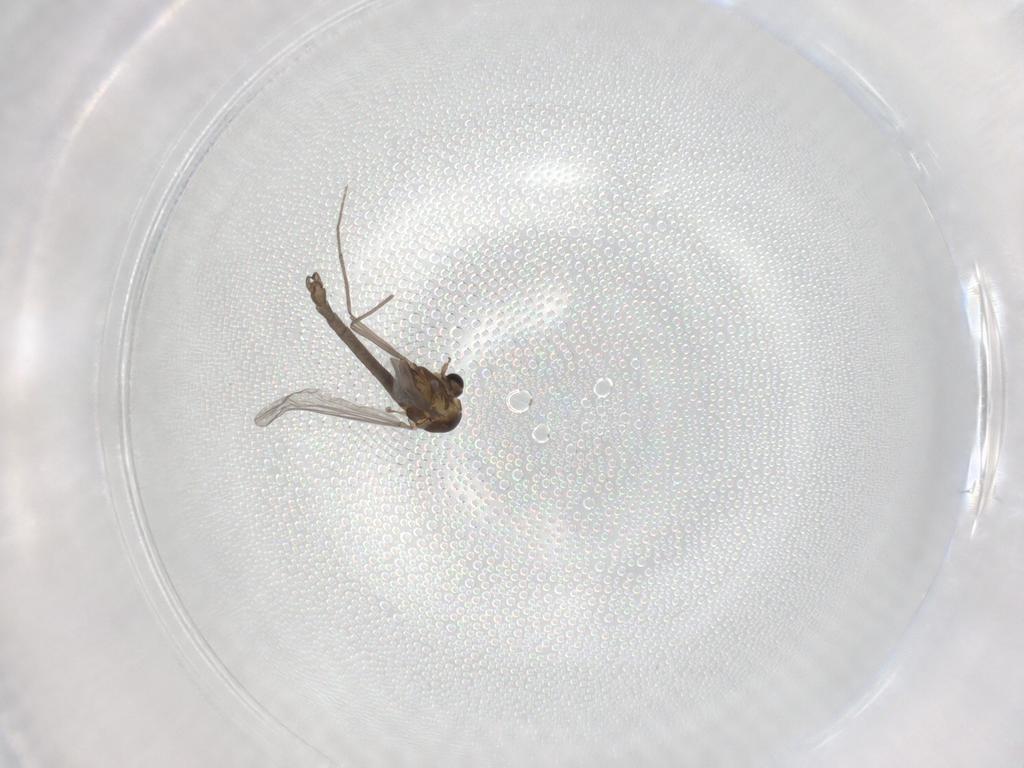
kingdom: Animalia
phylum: Arthropoda
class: Insecta
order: Diptera
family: Chironomidae
